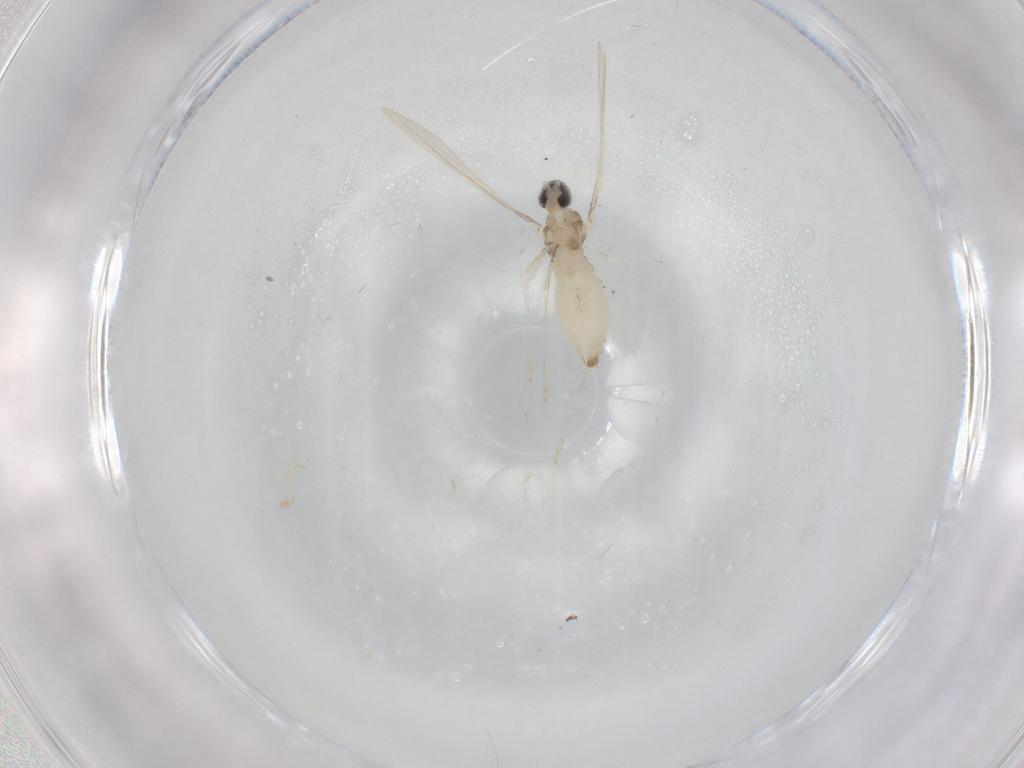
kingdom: Animalia
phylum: Arthropoda
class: Insecta
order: Diptera
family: Cecidomyiidae
